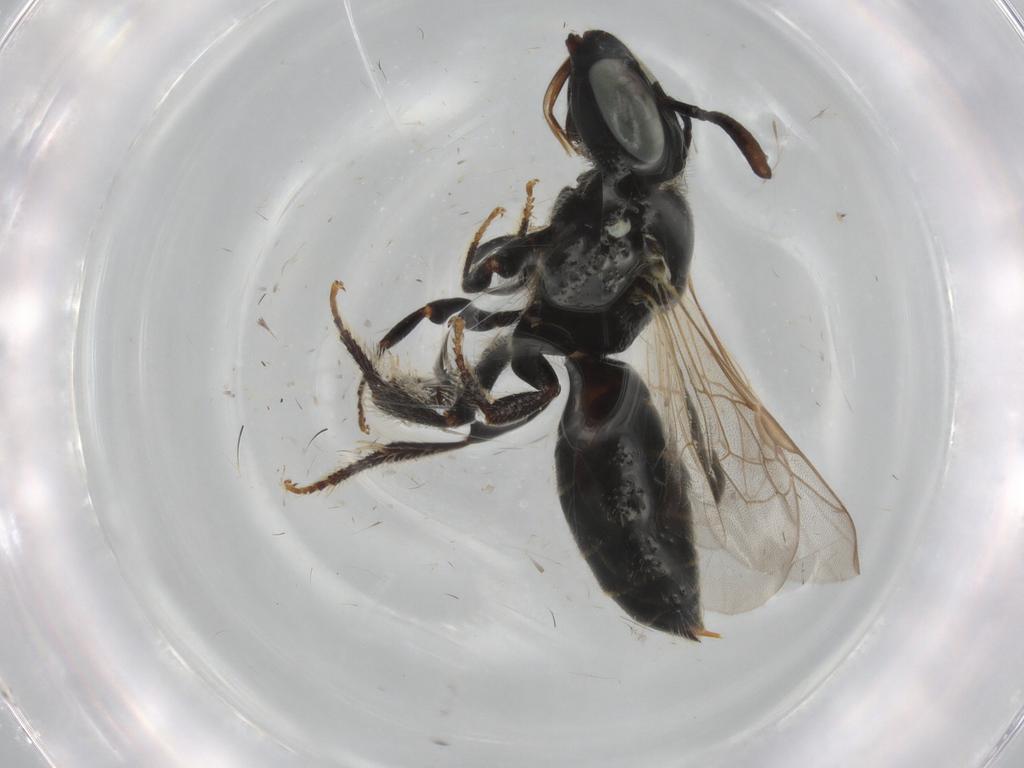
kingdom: Animalia
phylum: Arthropoda
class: Insecta
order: Hymenoptera
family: Apidae
